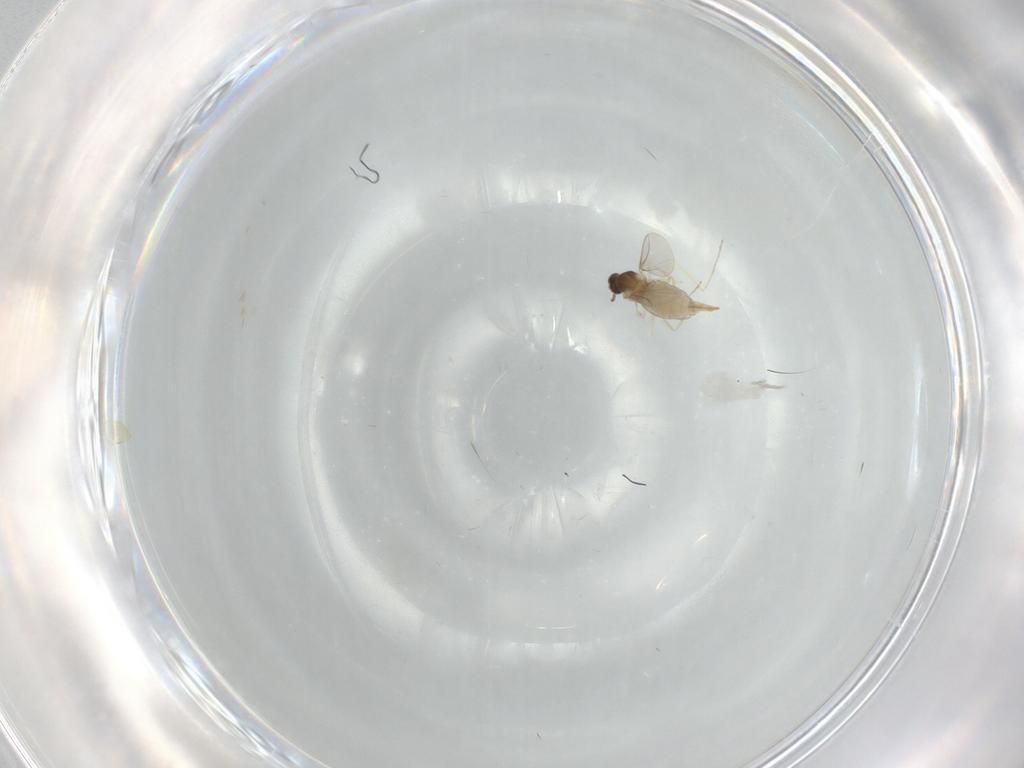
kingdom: Animalia
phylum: Arthropoda
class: Insecta
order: Diptera
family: Cecidomyiidae
